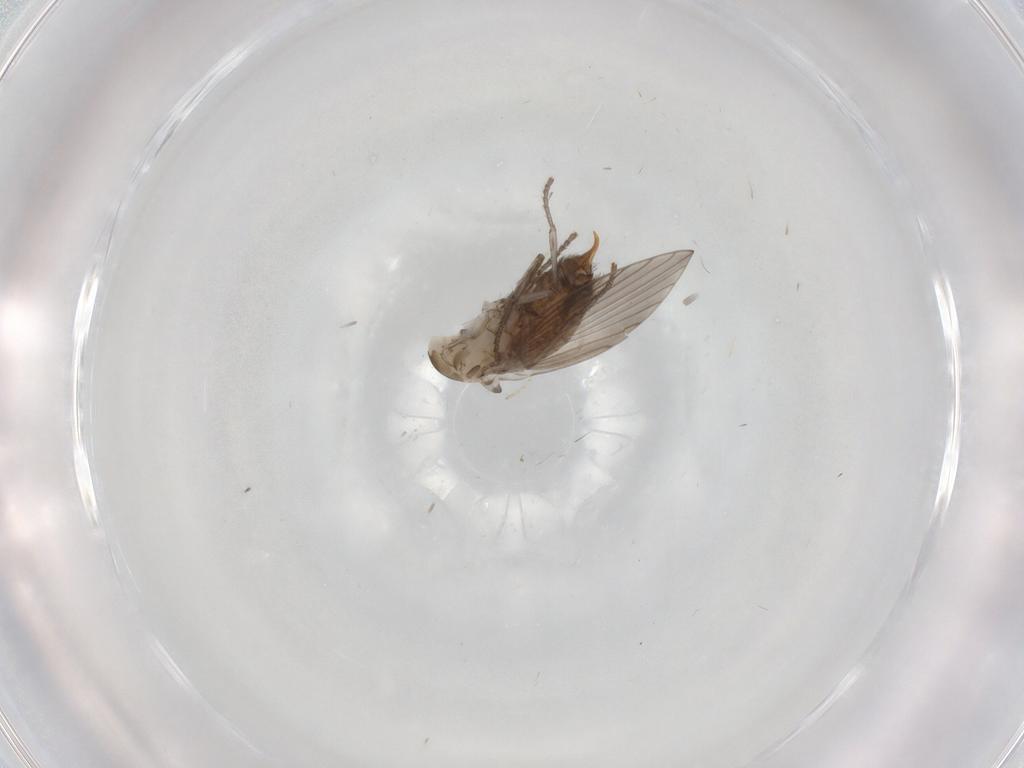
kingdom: Animalia
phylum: Arthropoda
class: Insecta
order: Diptera
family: Psychodidae
